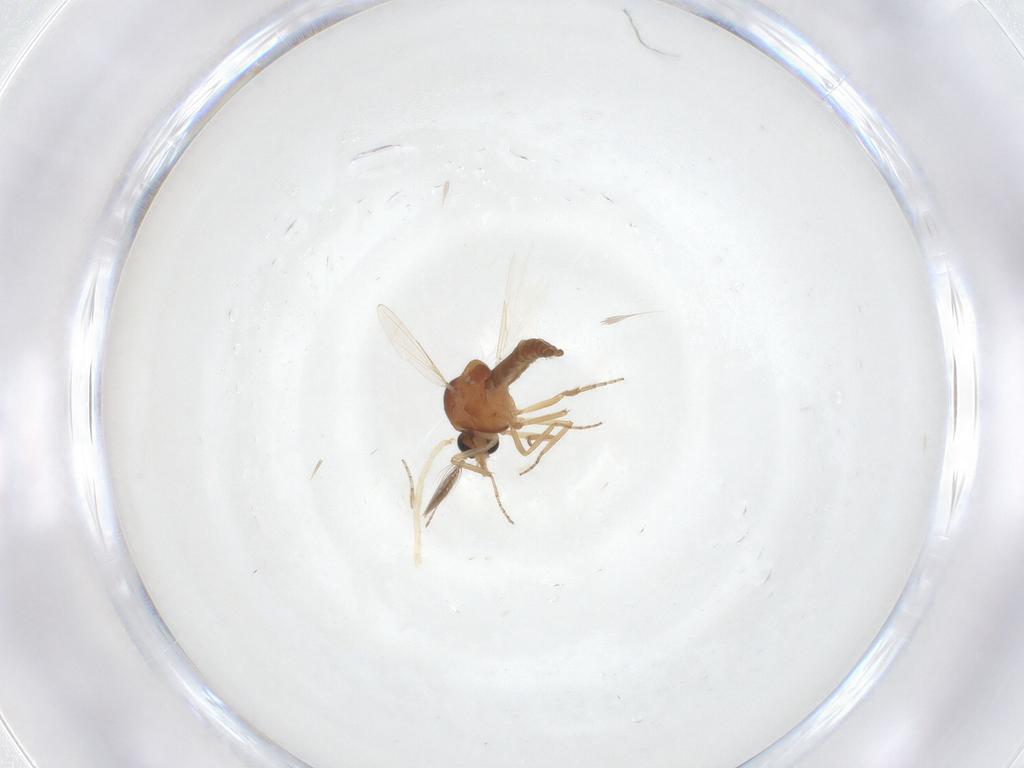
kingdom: Animalia
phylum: Arthropoda
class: Insecta
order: Diptera
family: Ceratopogonidae
